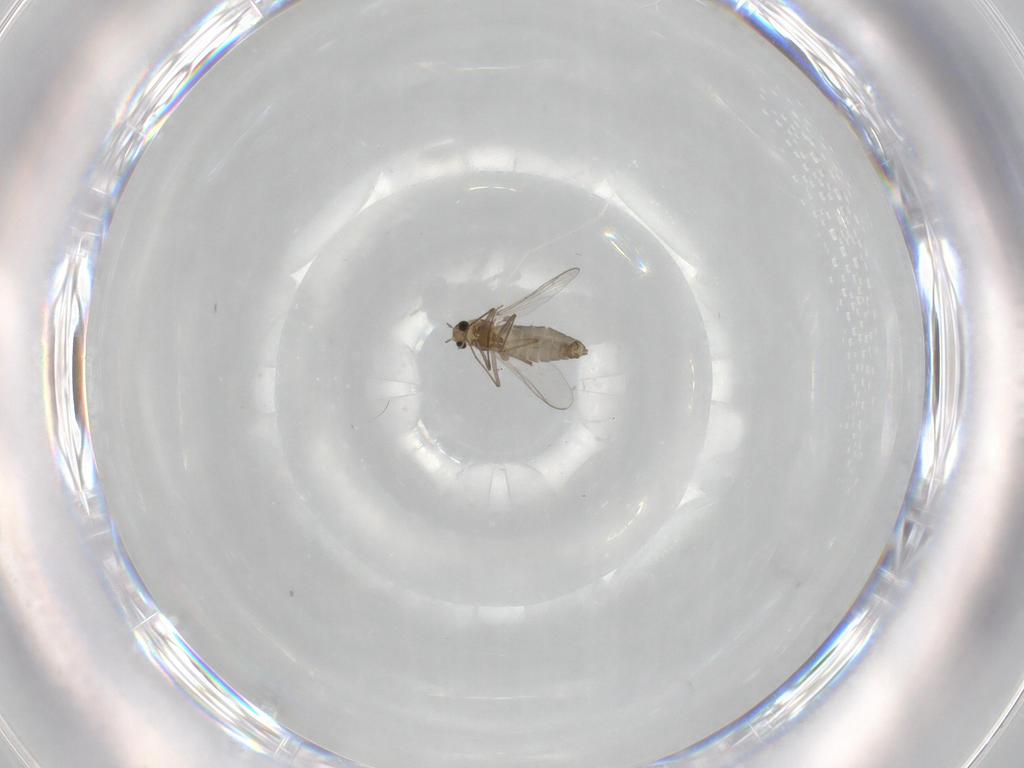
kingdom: Animalia
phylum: Arthropoda
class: Insecta
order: Diptera
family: Chironomidae
